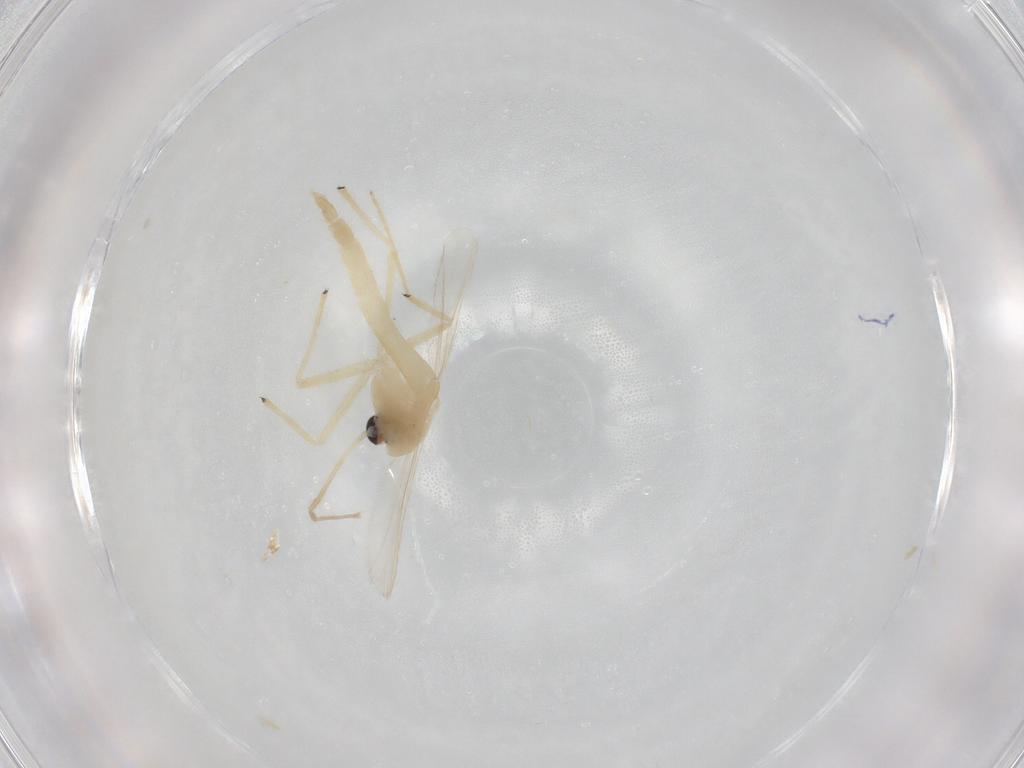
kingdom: Animalia
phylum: Arthropoda
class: Insecta
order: Diptera
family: Chironomidae
